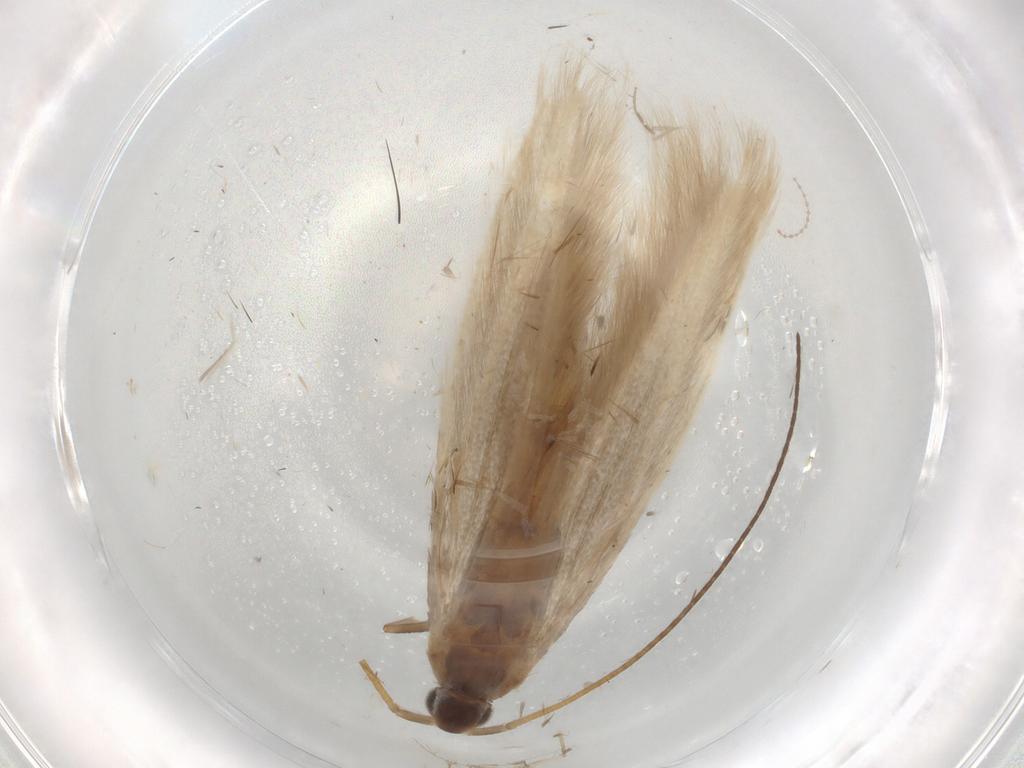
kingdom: Animalia
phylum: Arthropoda
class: Insecta
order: Lepidoptera
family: Coleophoridae
